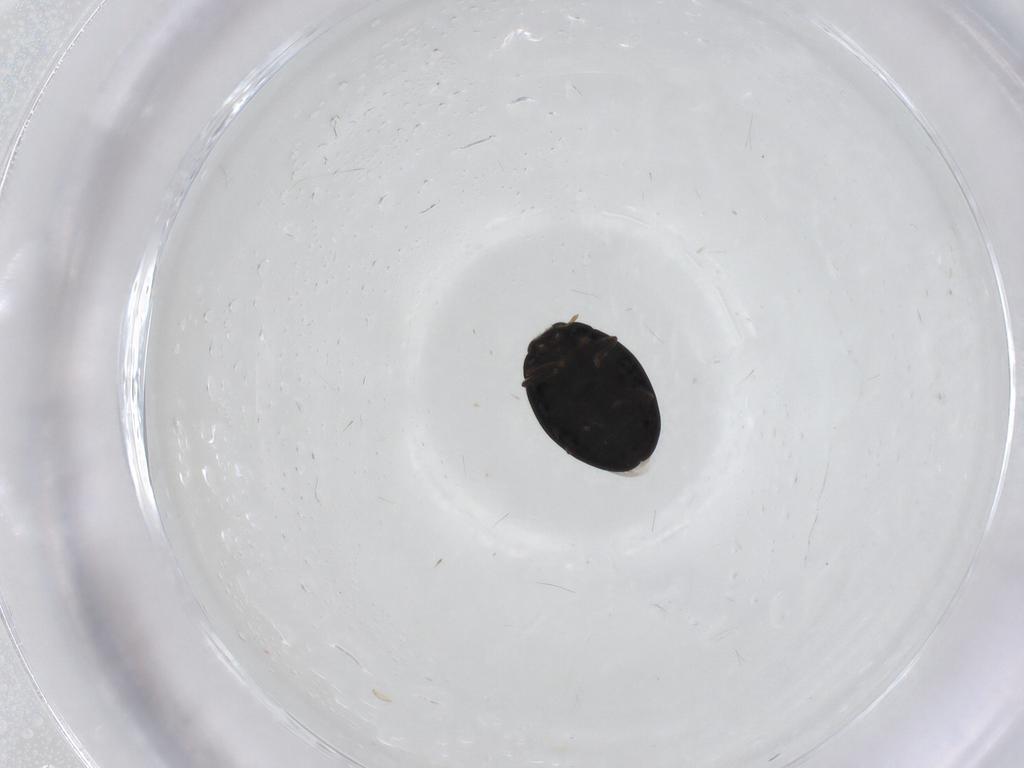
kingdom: Animalia
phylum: Arthropoda
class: Insecta
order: Coleoptera
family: Coccinellidae
